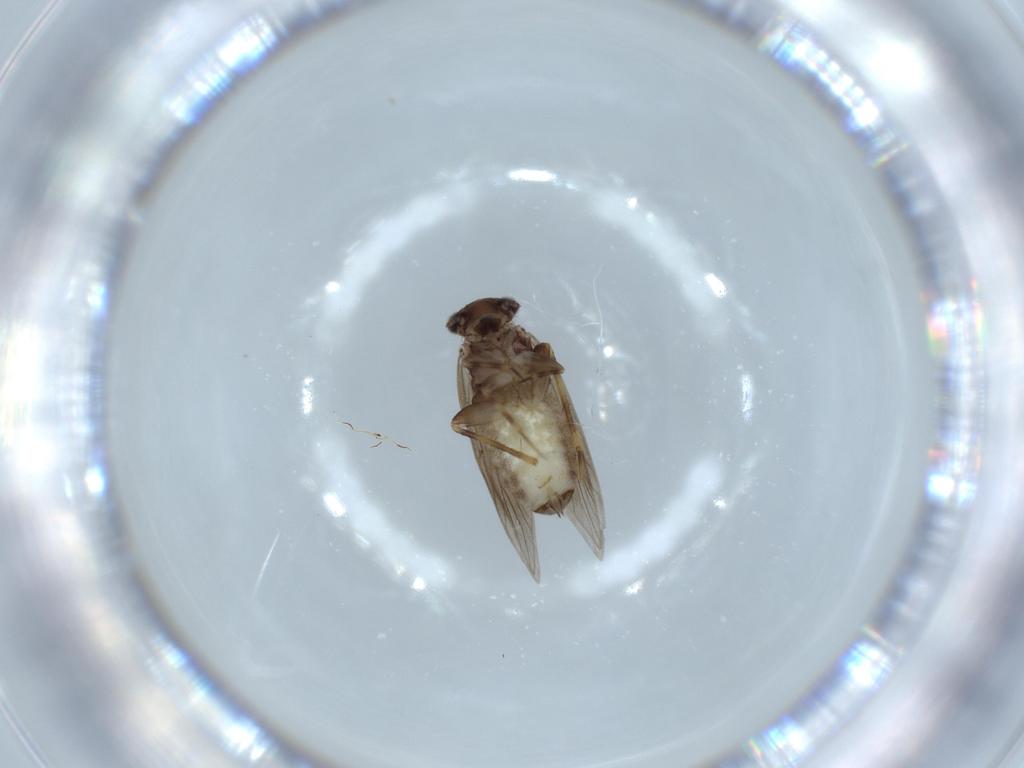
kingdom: Animalia
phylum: Arthropoda
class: Insecta
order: Psocodea
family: Lepidopsocidae
